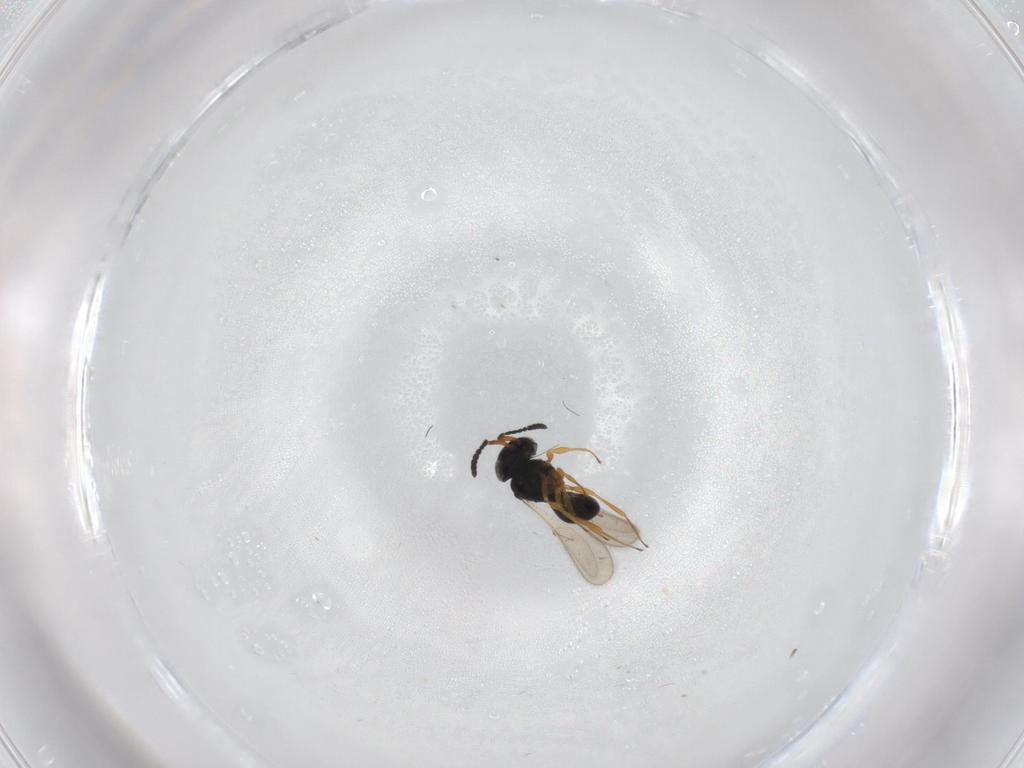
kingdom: Animalia
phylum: Arthropoda
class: Insecta
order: Hymenoptera
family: Scelionidae
